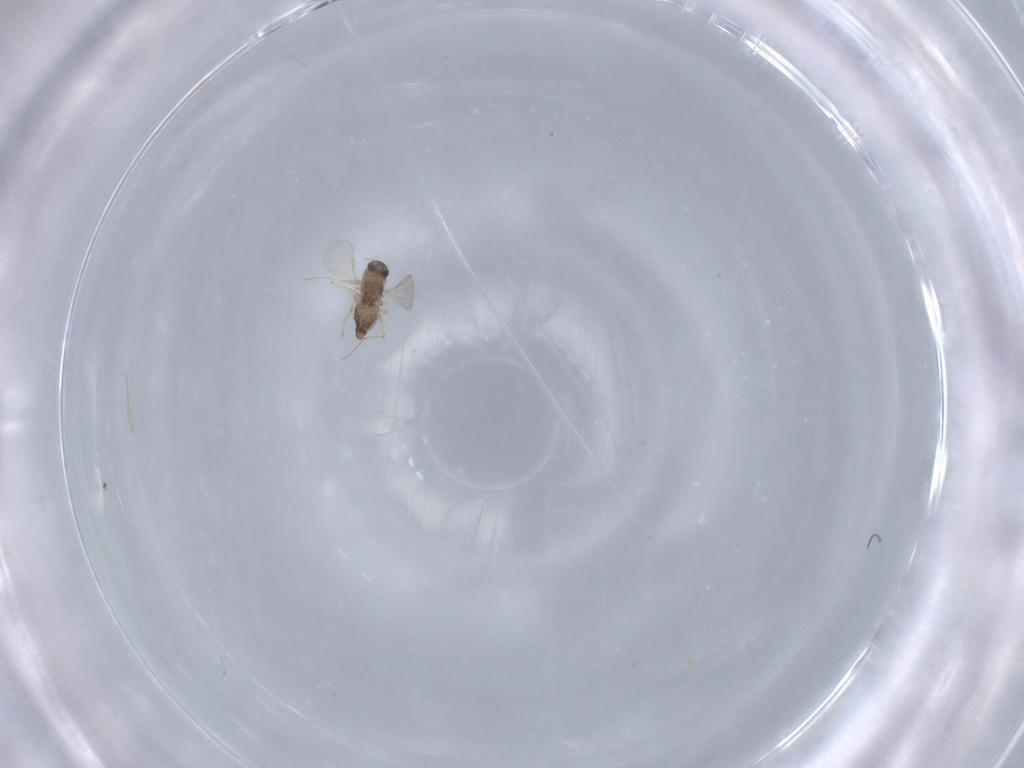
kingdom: Animalia
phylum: Arthropoda
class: Insecta
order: Diptera
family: Chironomidae
